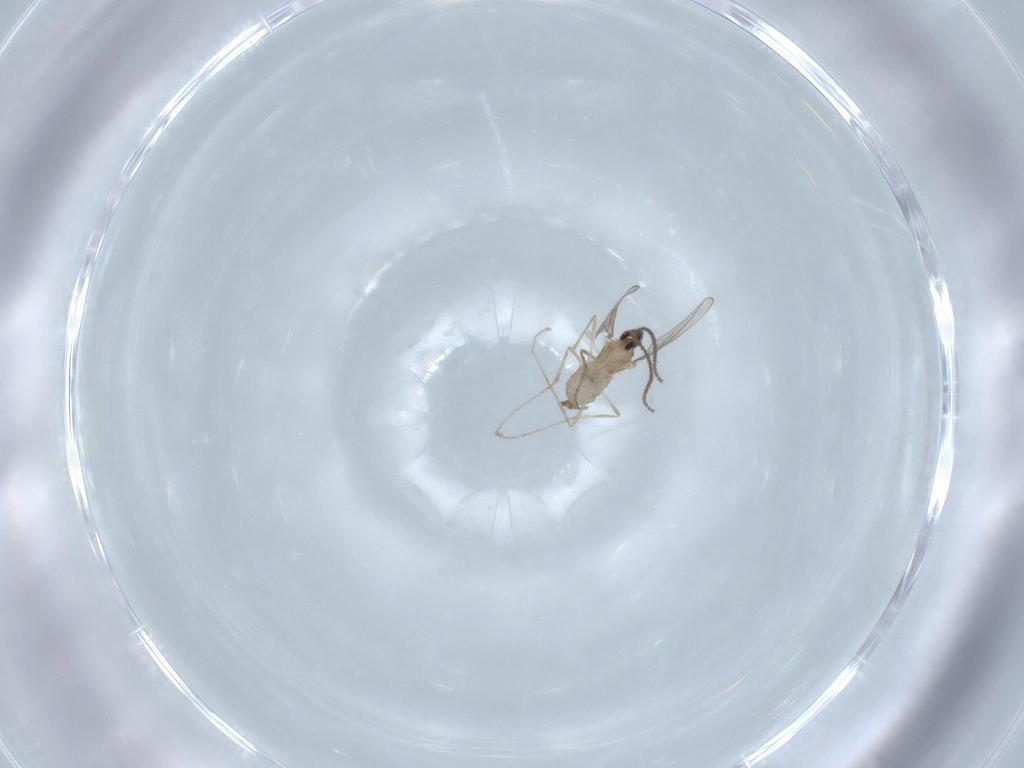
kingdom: Animalia
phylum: Arthropoda
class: Insecta
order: Diptera
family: Cecidomyiidae
